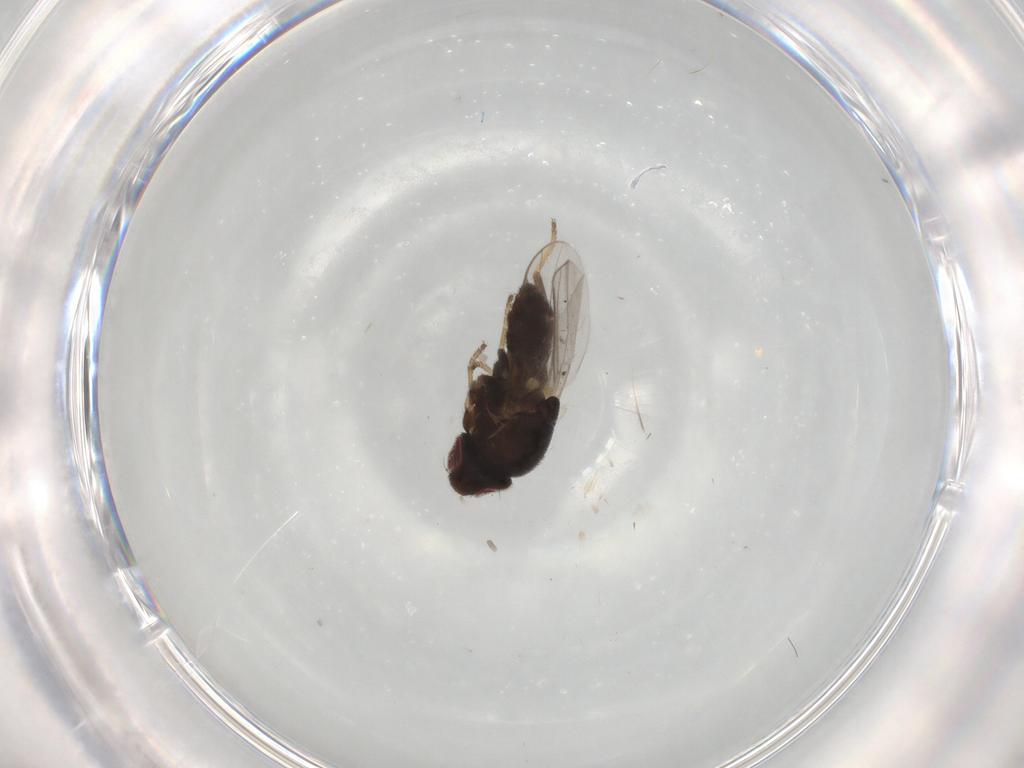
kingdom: Animalia
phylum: Arthropoda
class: Insecta
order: Diptera
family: Chloropidae
